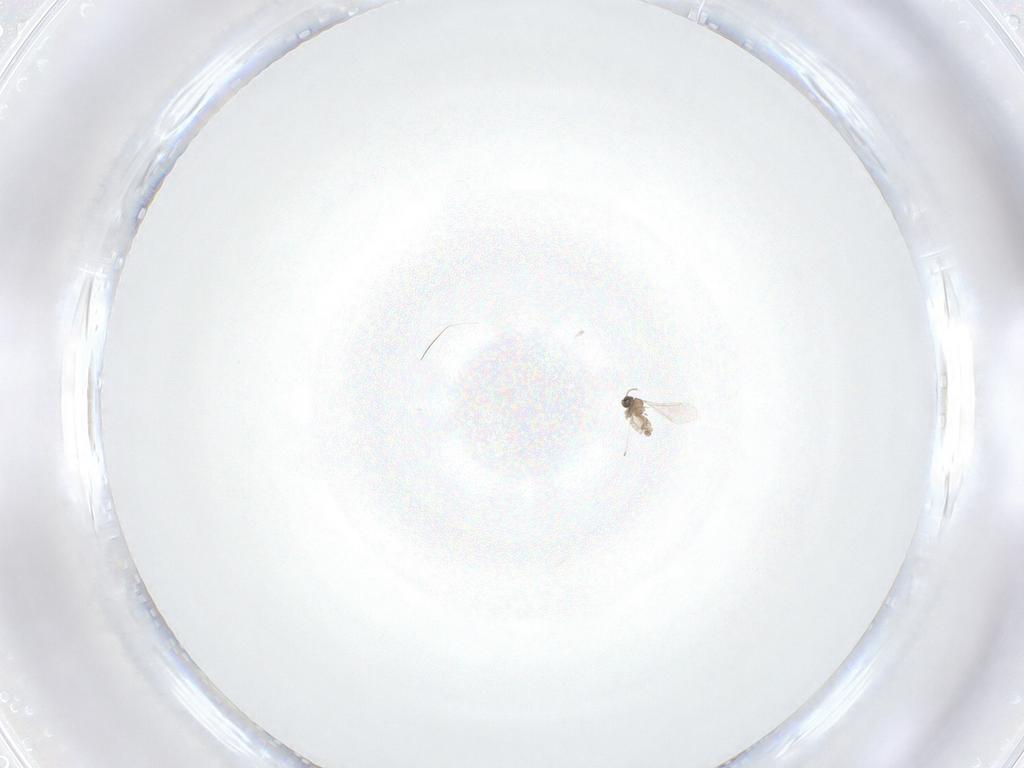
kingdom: Animalia
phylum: Arthropoda
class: Insecta
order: Diptera
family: Cecidomyiidae
